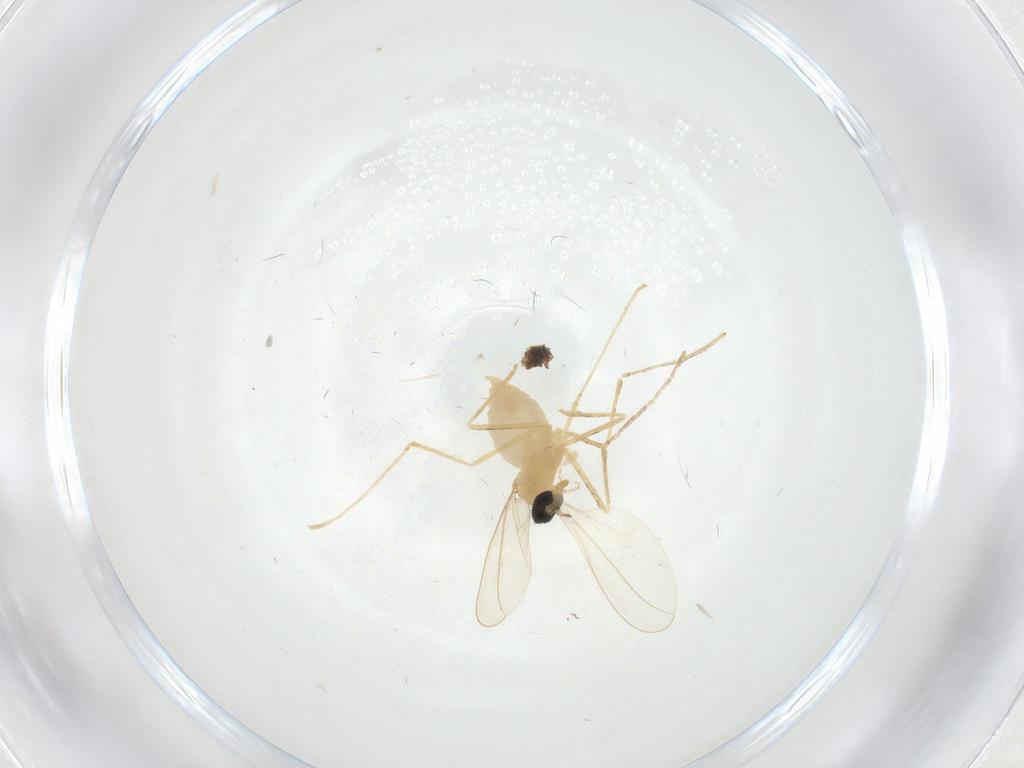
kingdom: Animalia
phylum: Arthropoda
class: Insecta
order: Diptera
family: Cecidomyiidae
